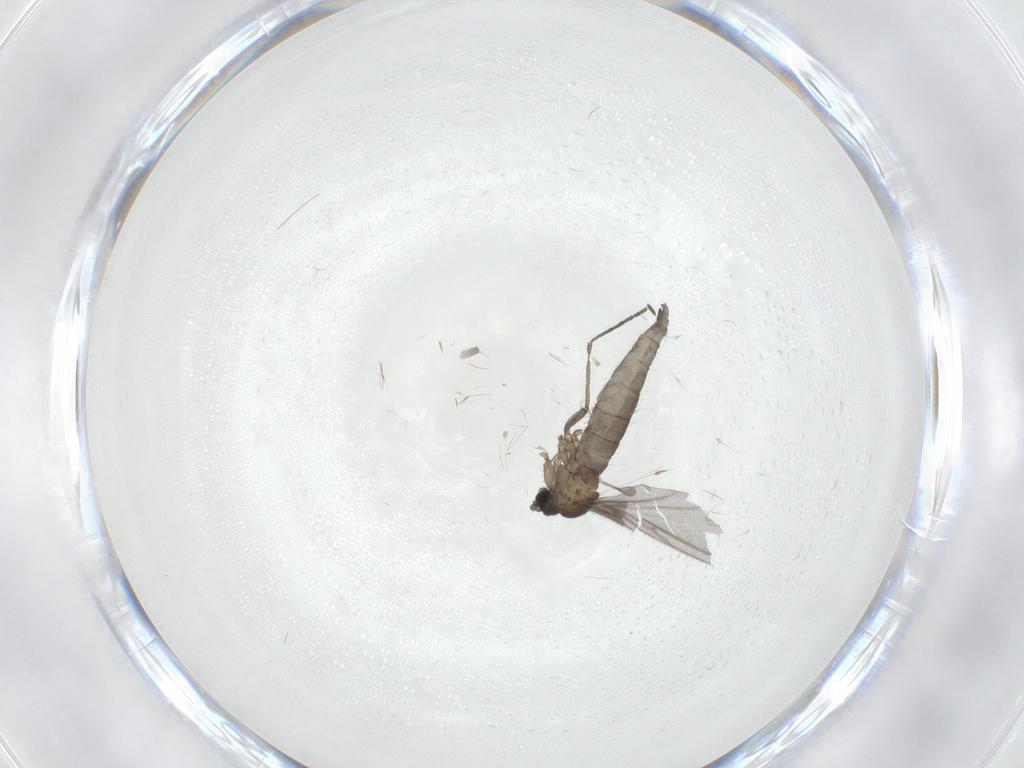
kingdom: Animalia
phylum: Arthropoda
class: Insecta
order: Diptera
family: Sciaridae
